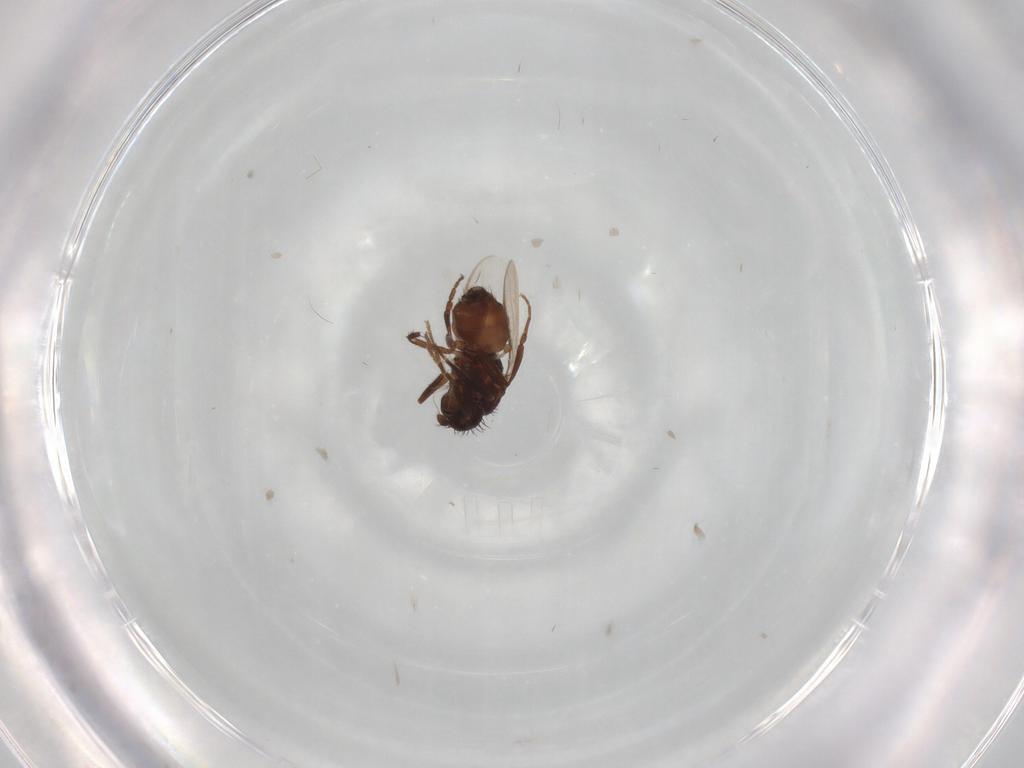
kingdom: Animalia
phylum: Arthropoda
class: Insecta
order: Diptera
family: Sphaeroceridae
